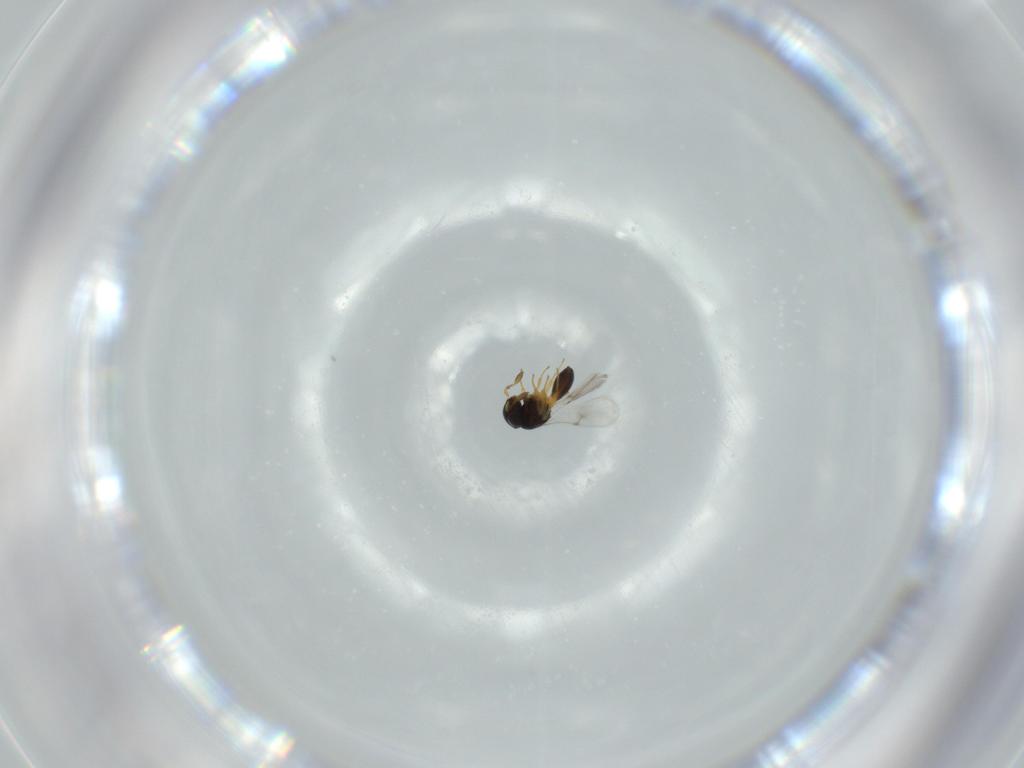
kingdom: Animalia
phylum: Arthropoda
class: Insecta
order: Hymenoptera
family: Scelionidae
